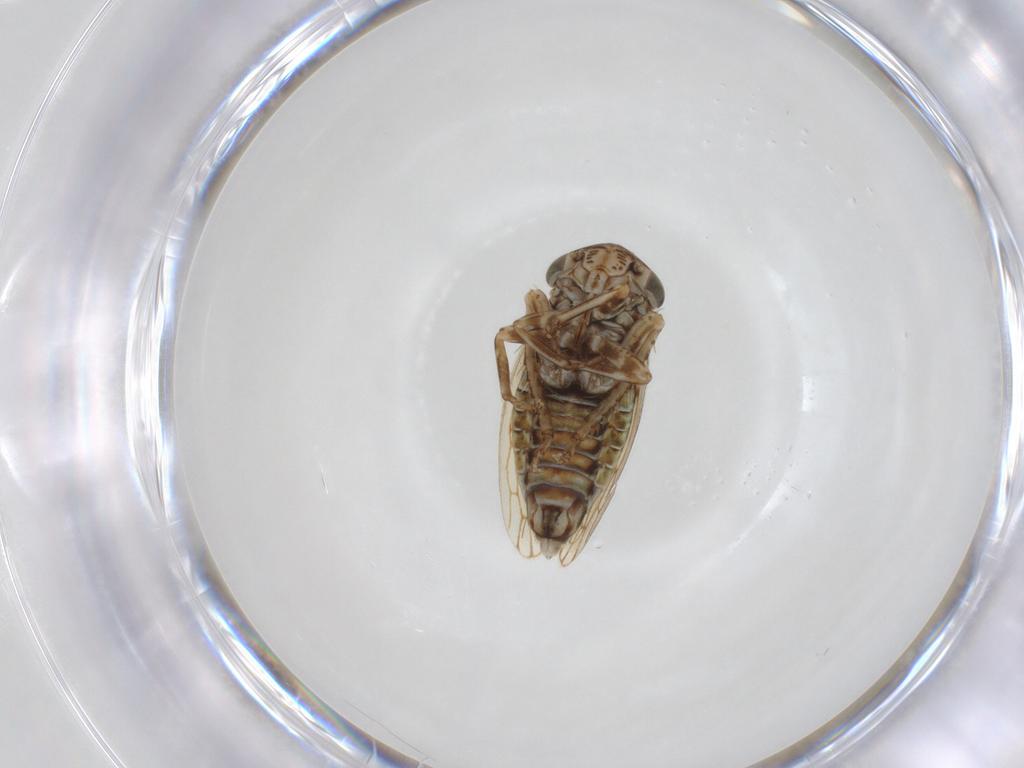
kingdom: Animalia
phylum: Arthropoda
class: Insecta
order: Hemiptera
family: Cicadellidae
